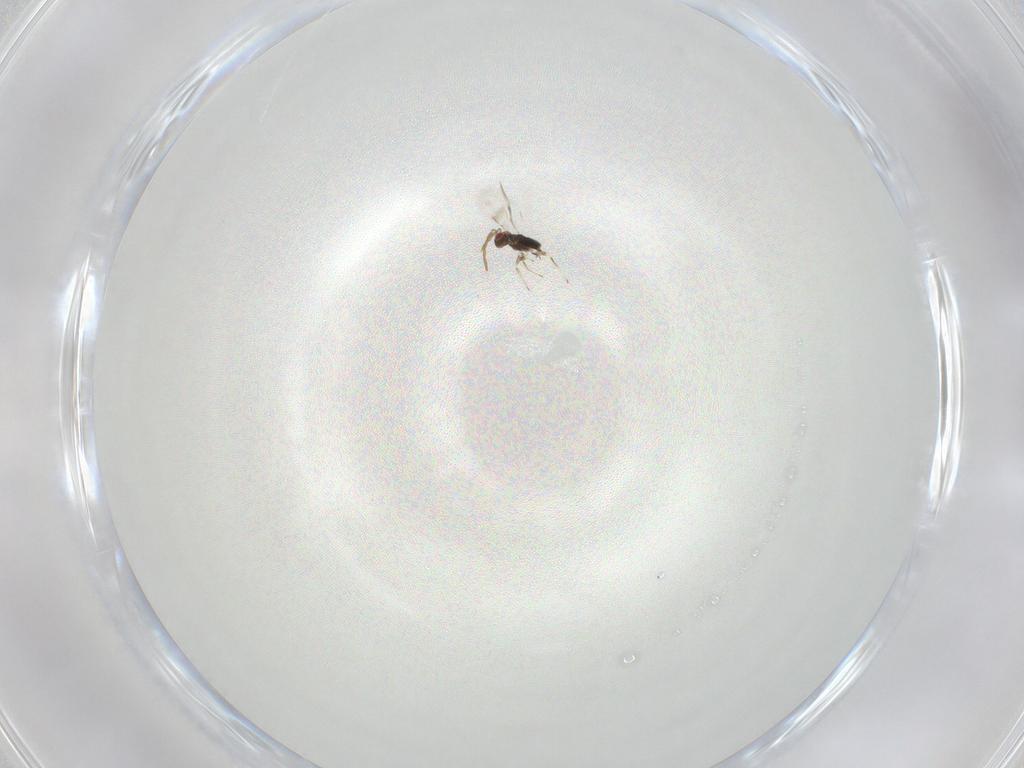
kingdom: Animalia
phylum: Arthropoda
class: Insecta
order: Hymenoptera
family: Azotidae
